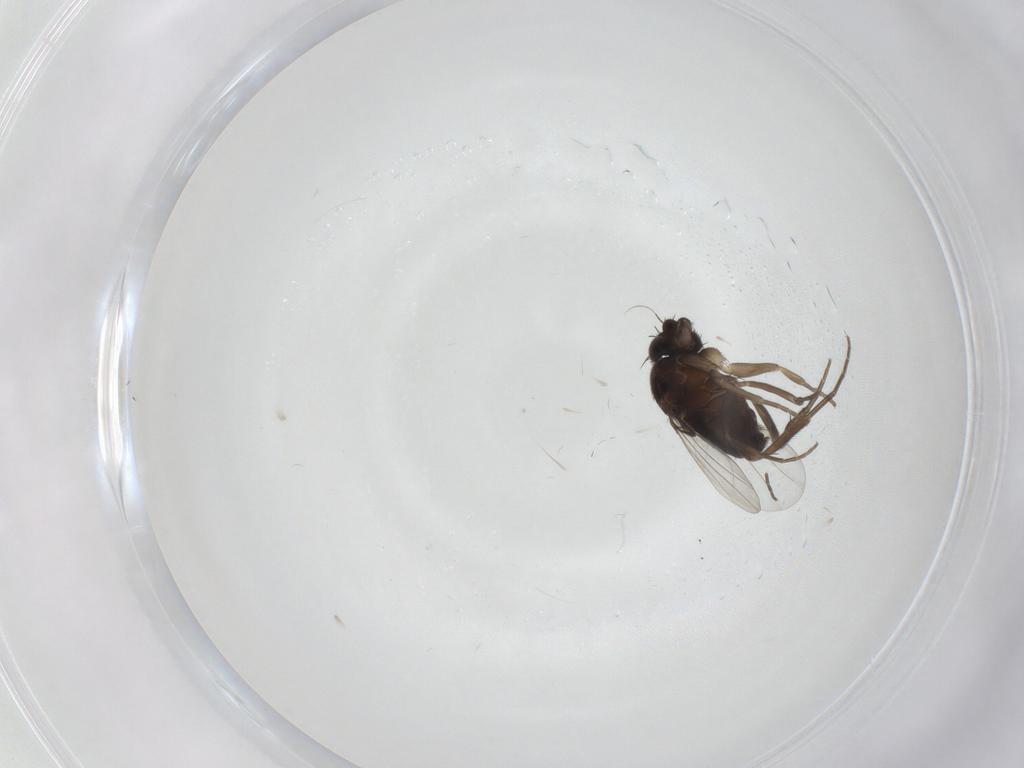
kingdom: Animalia
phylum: Arthropoda
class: Insecta
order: Diptera
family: Phoridae
